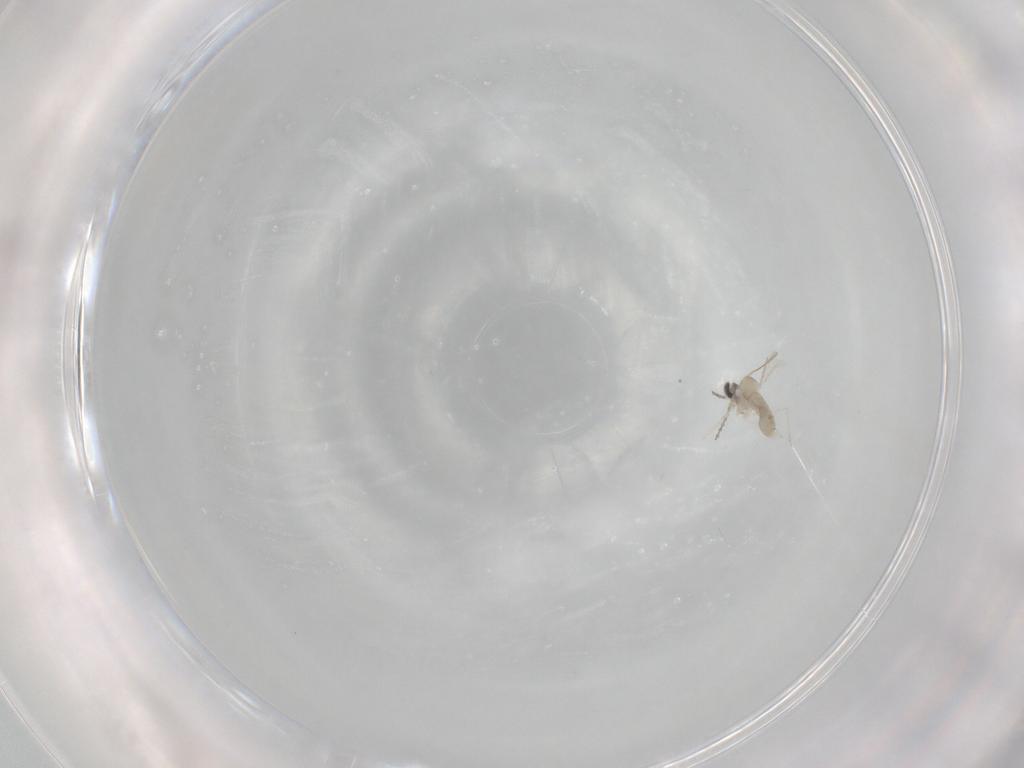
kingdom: Animalia
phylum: Arthropoda
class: Insecta
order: Diptera
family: Cecidomyiidae
